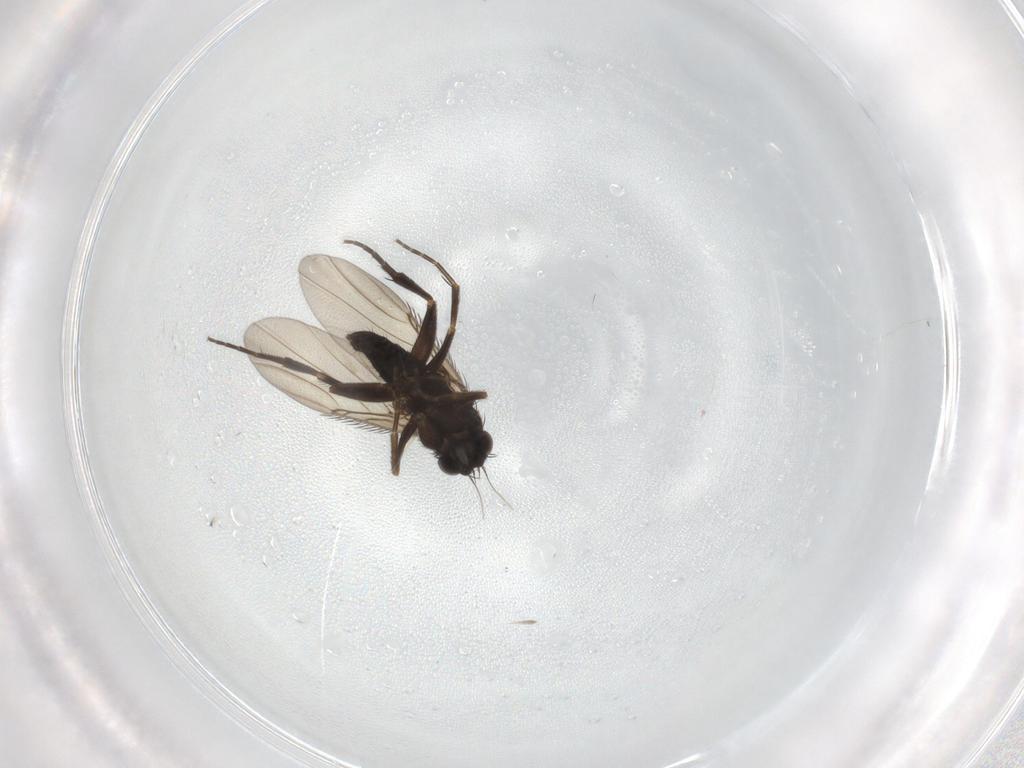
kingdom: Animalia
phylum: Arthropoda
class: Insecta
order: Diptera
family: Phoridae
